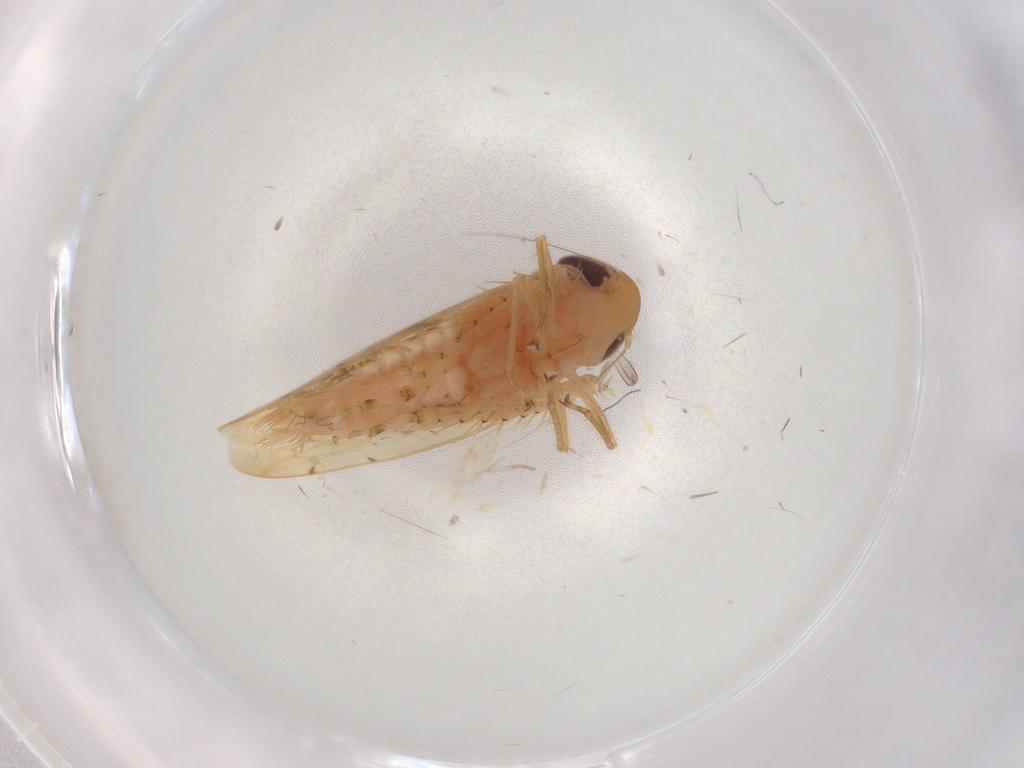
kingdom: Animalia
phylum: Arthropoda
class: Insecta
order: Hemiptera
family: Cicadellidae
